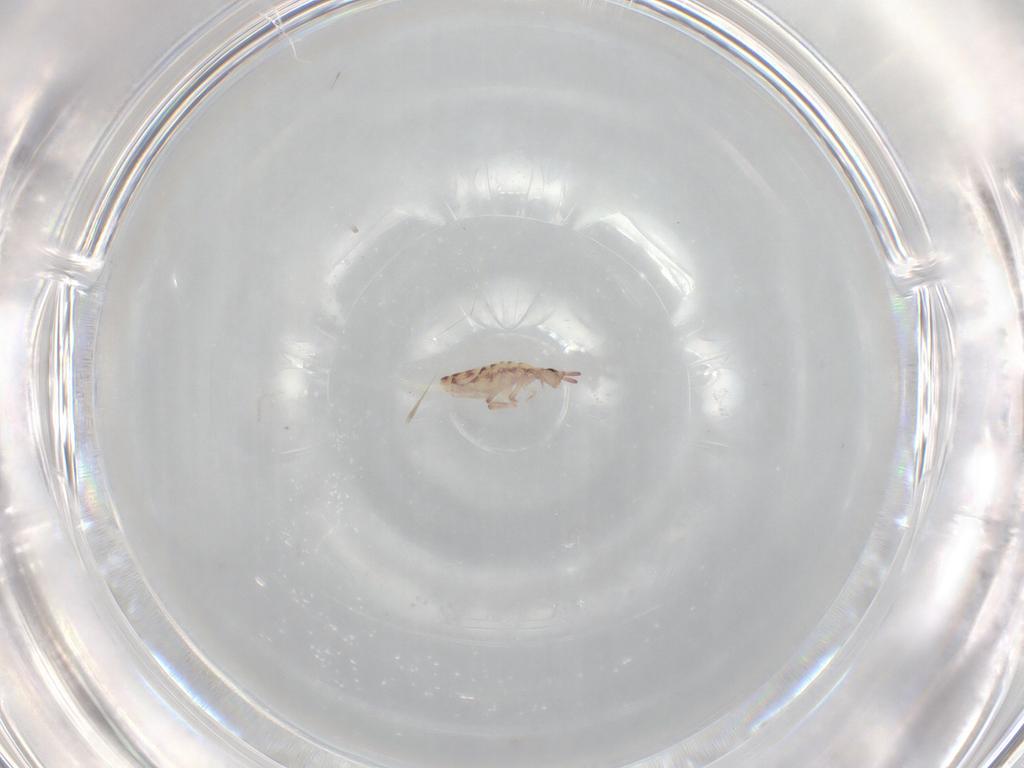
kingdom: Animalia
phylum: Arthropoda
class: Collembola
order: Entomobryomorpha
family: Entomobryidae
